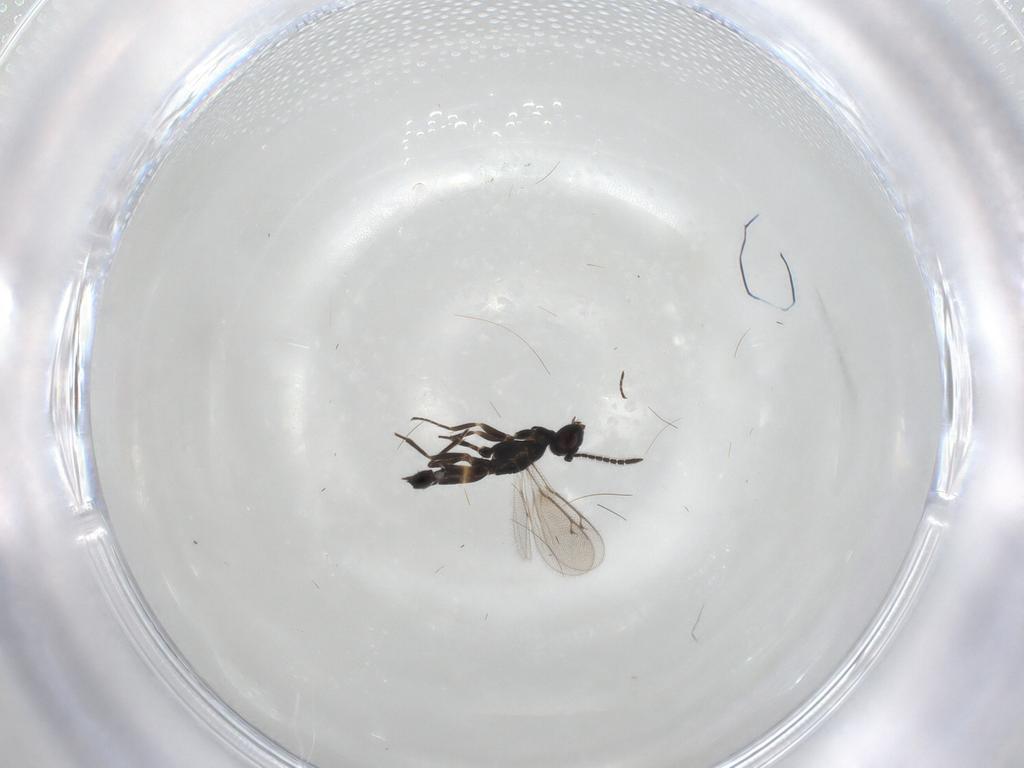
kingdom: Animalia
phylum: Arthropoda
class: Insecta
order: Hymenoptera
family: Eupelmidae
